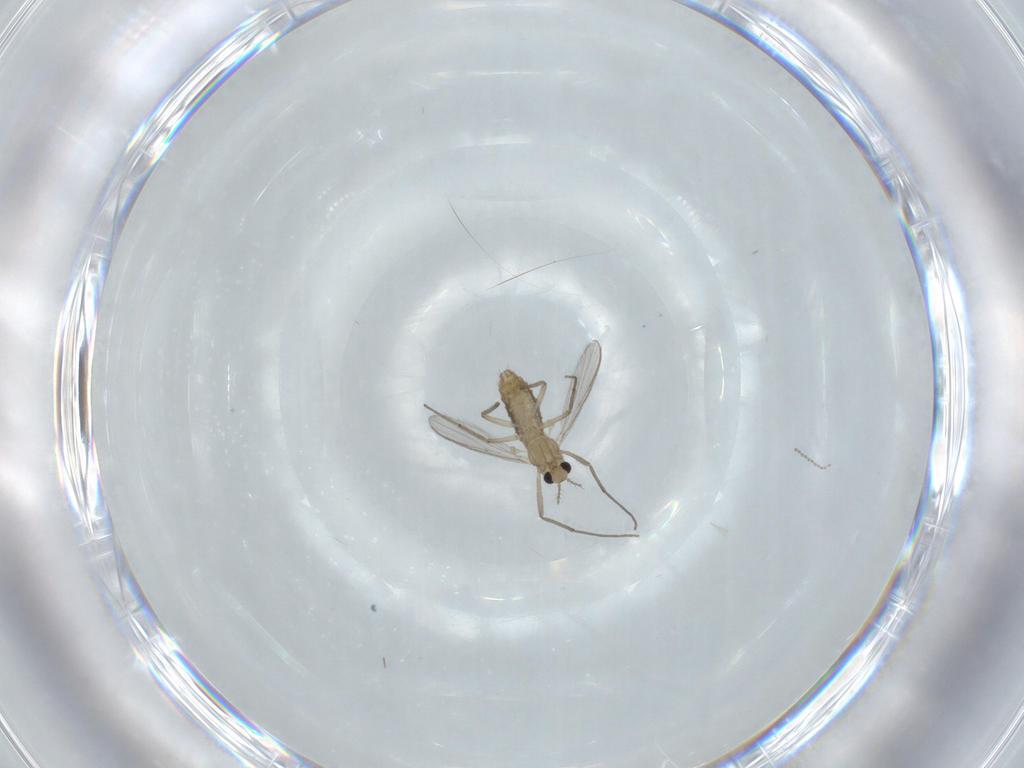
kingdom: Animalia
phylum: Arthropoda
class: Insecta
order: Diptera
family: Chironomidae
